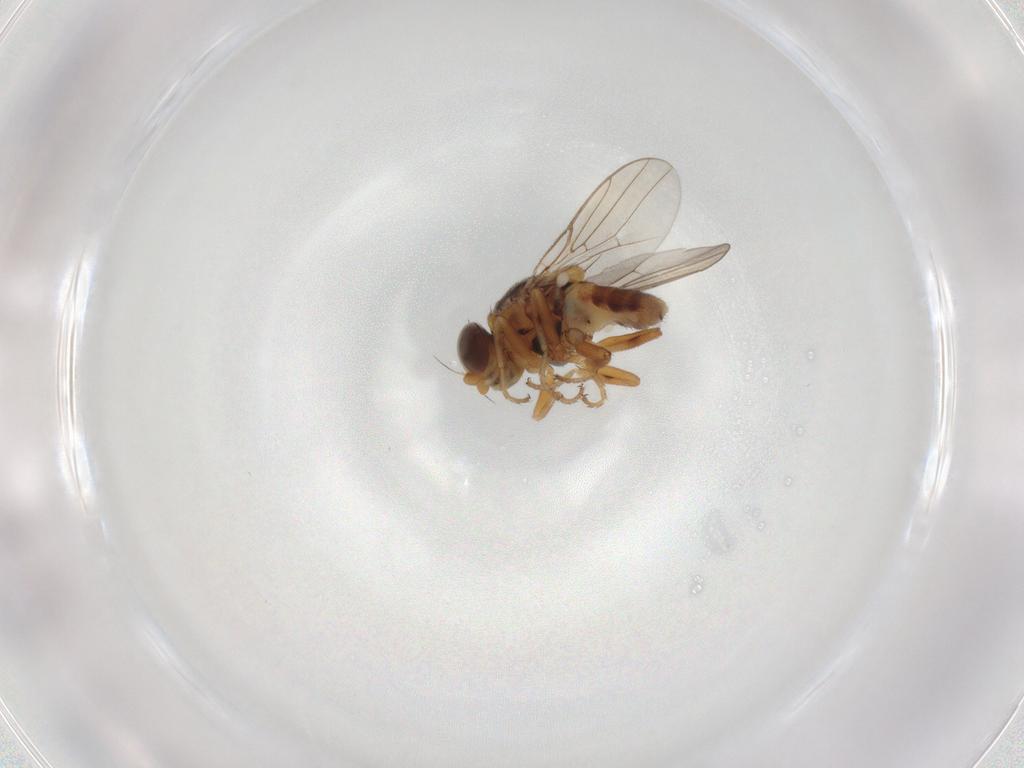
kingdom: Animalia
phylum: Arthropoda
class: Insecta
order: Diptera
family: Chloropidae
